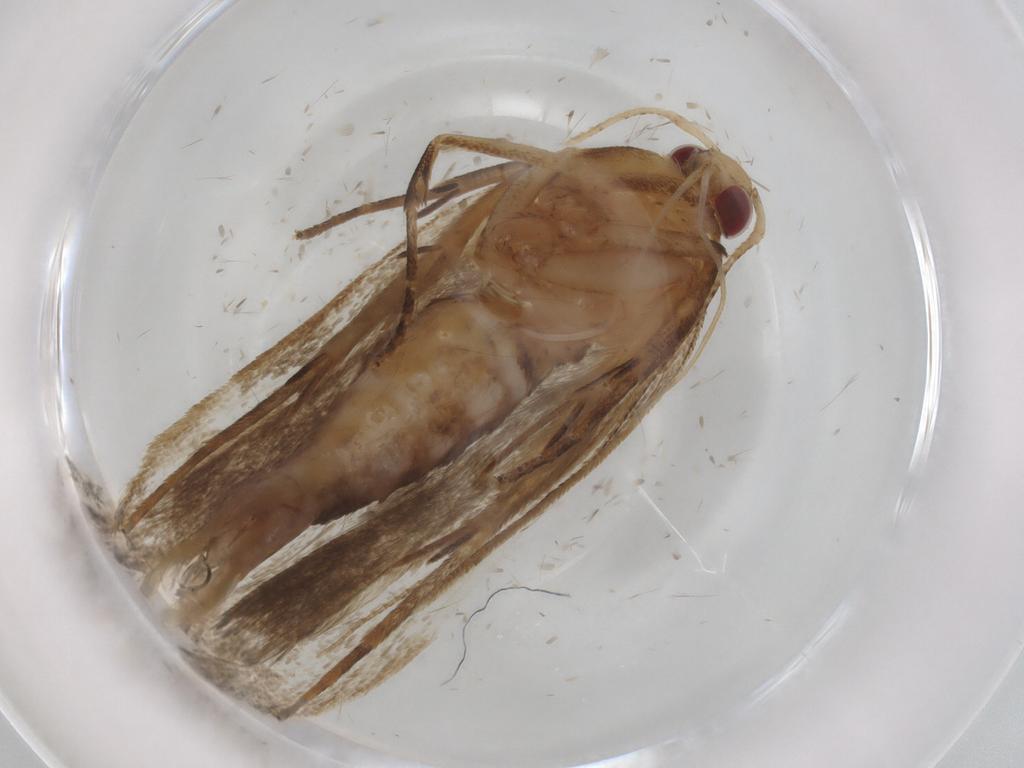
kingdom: Animalia
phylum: Arthropoda
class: Insecta
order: Lepidoptera
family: Gelechiidae
